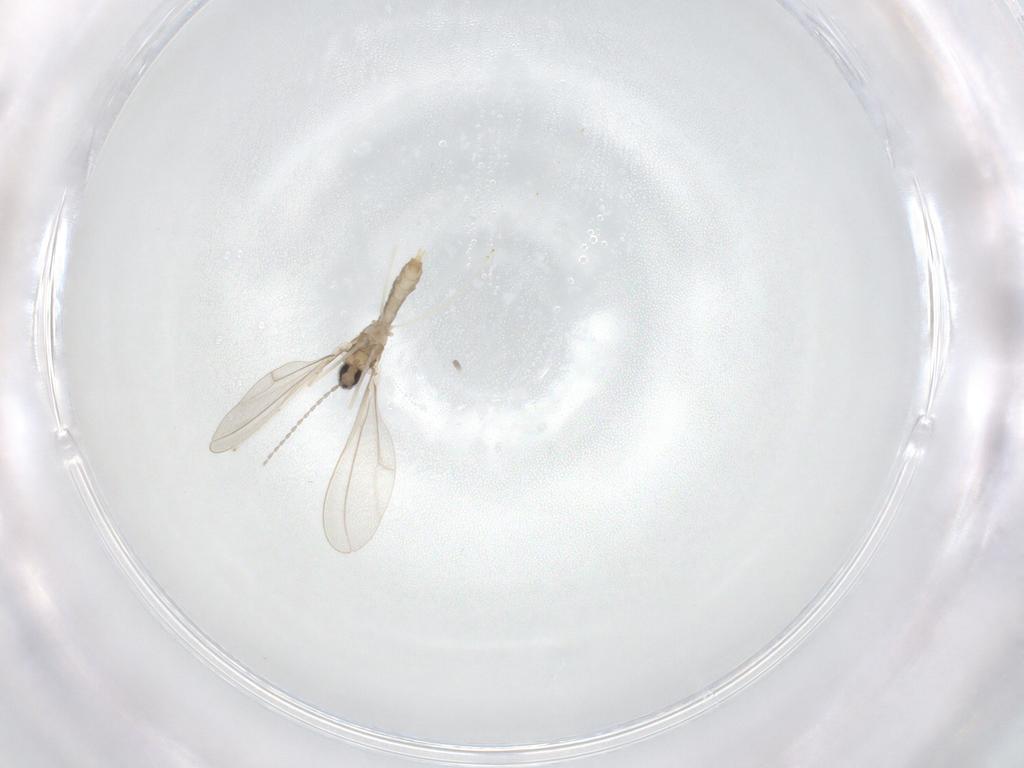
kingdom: Animalia
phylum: Arthropoda
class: Insecta
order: Diptera
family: Cecidomyiidae
